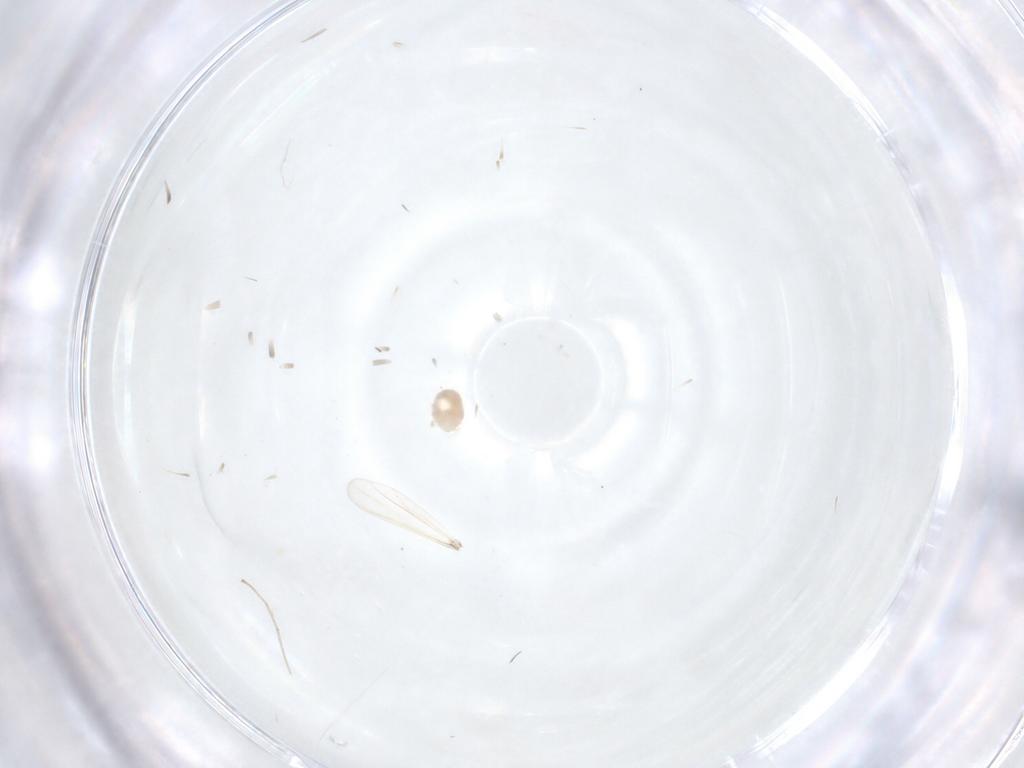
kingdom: Animalia
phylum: Arthropoda
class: Insecta
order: Diptera
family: Cecidomyiidae
